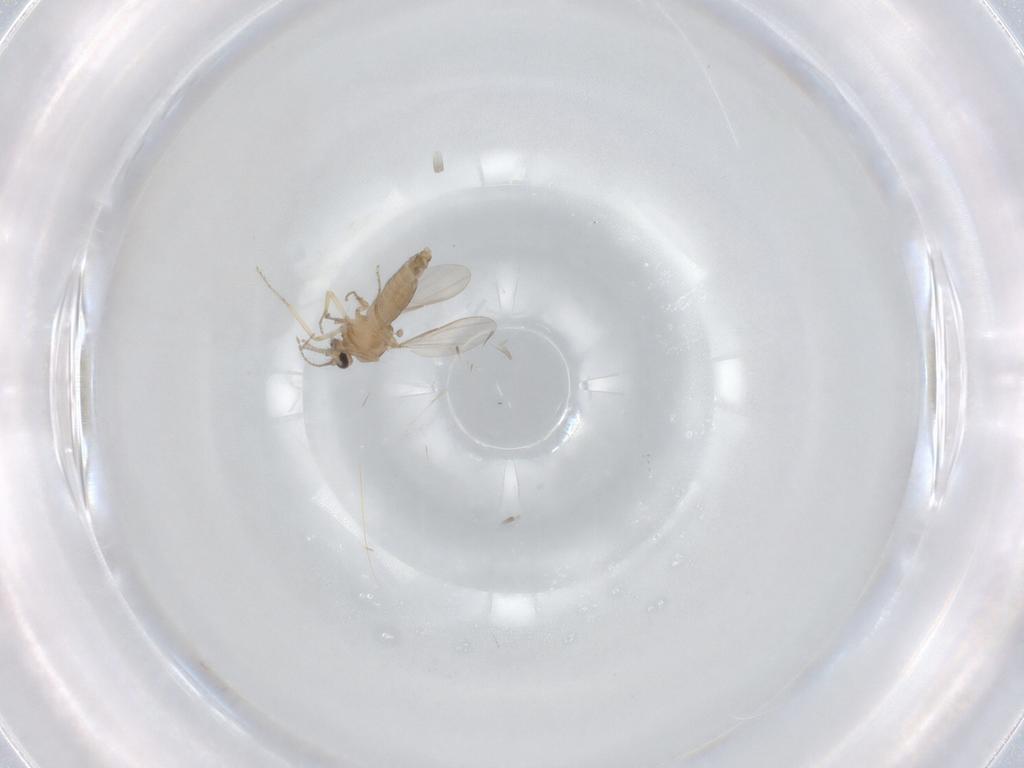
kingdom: Animalia
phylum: Arthropoda
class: Insecta
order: Diptera
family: Ceratopogonidae
